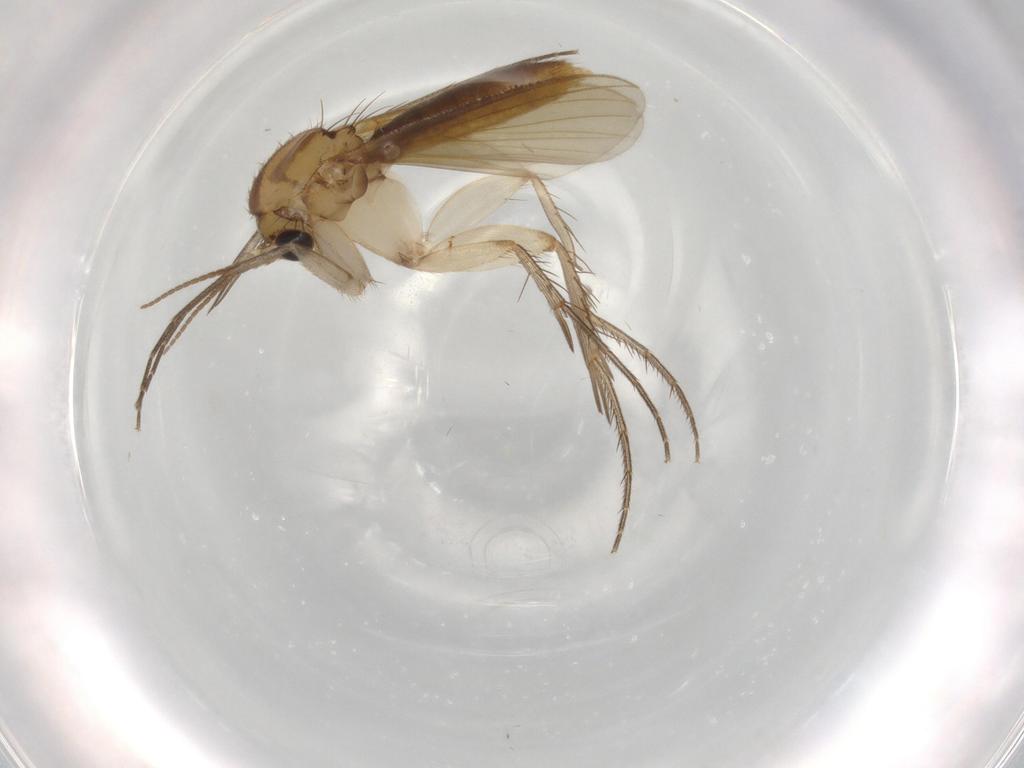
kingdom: Animalia
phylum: Arthropoda
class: Insecta
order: Diptera
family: Mycetophilidae
